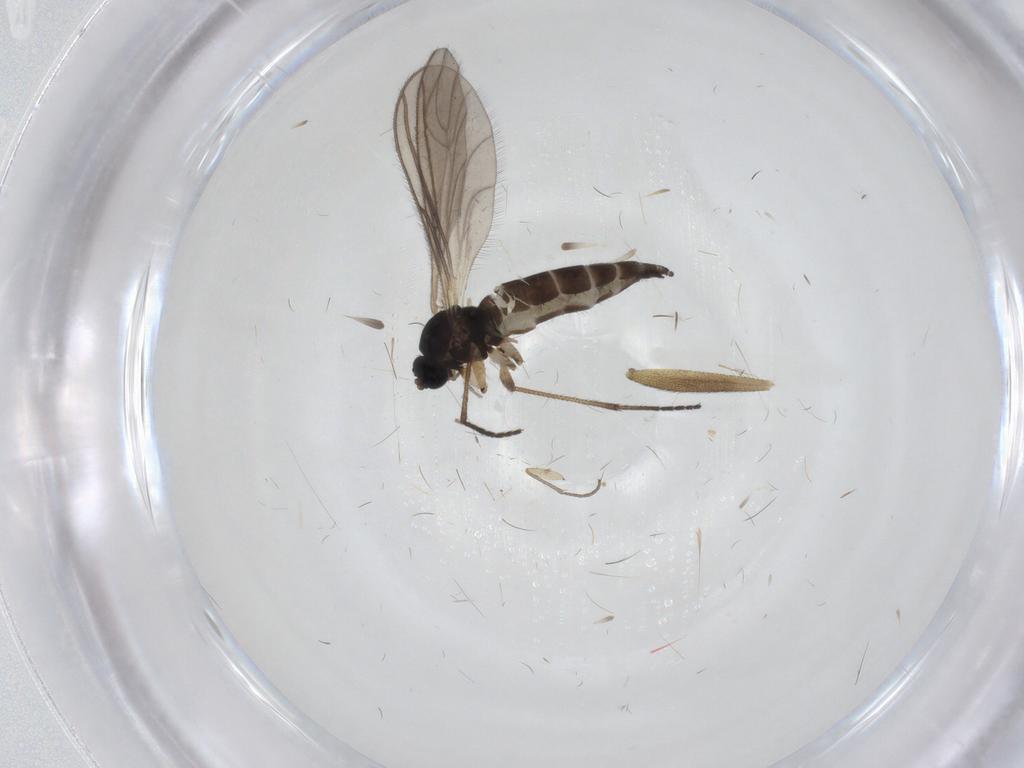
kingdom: Animalia
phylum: Arthropoda
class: Insecta
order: Diptera
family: Sciaridae
